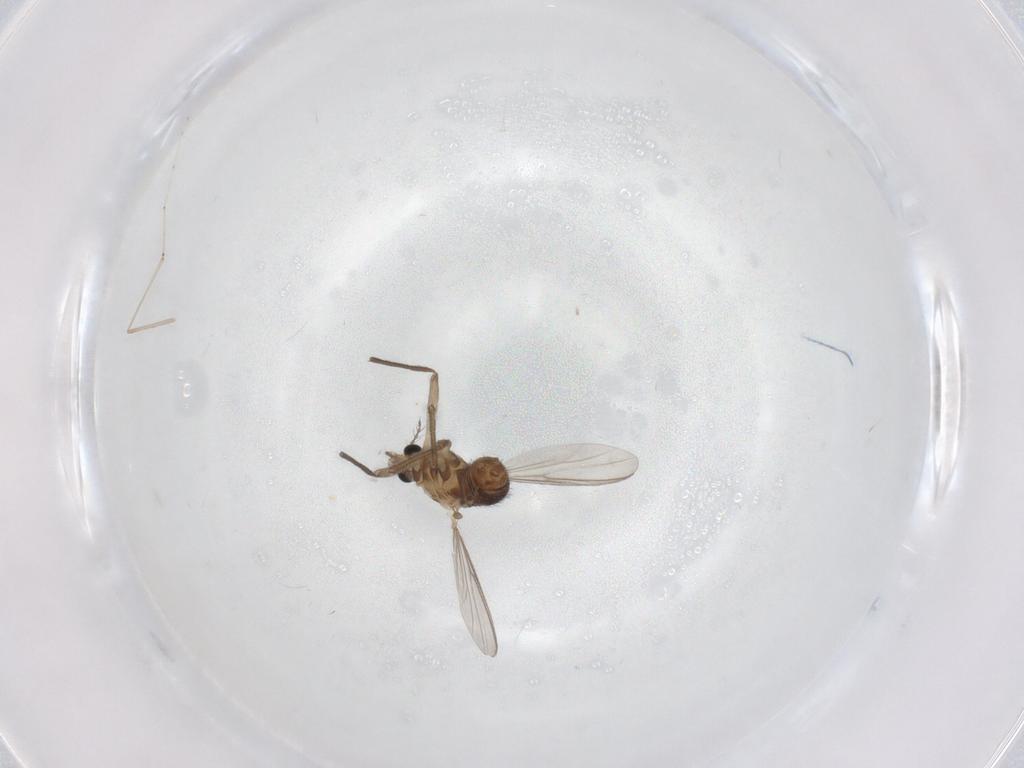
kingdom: Animalia
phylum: Arthropoda
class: Insecta
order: Diptera
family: Chironomidae
